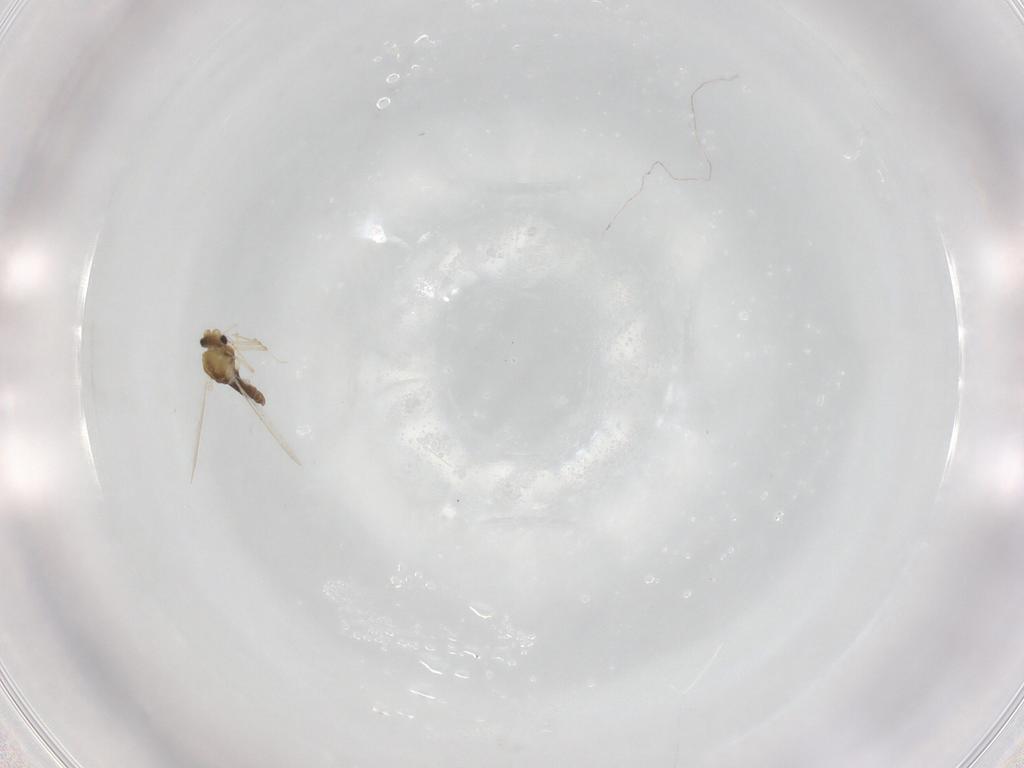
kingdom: Animalia
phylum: Arthropoda
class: Insecta
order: Diptera
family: Chironomidae
